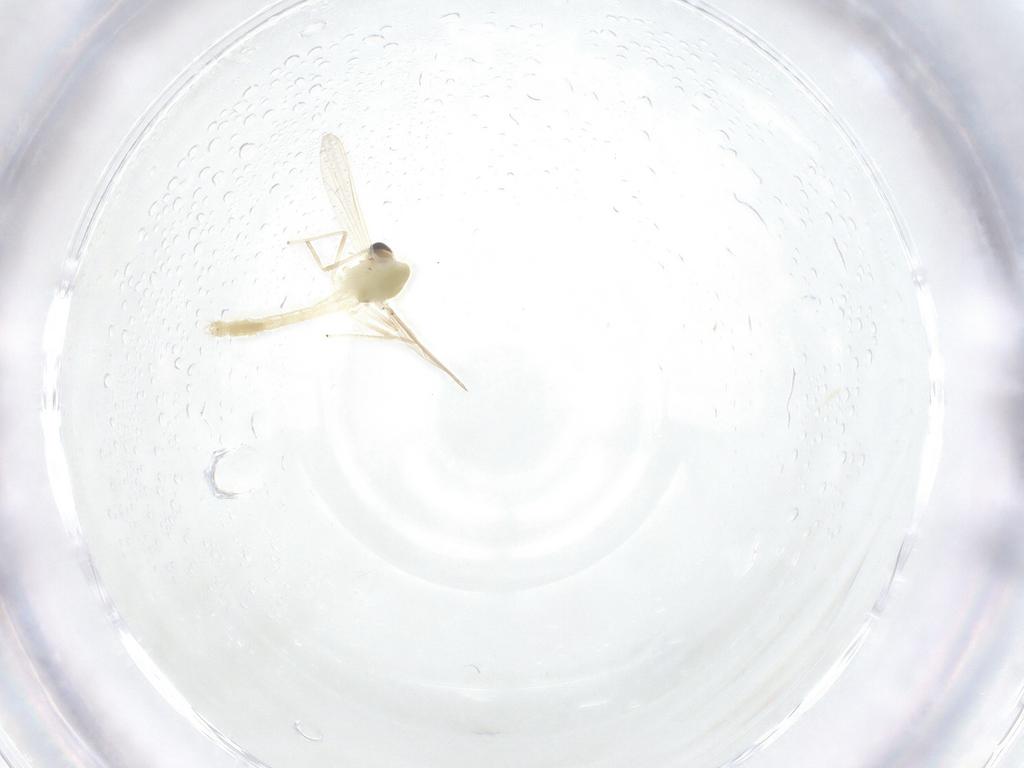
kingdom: Animalia
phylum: Arthropoda
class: Insecta
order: Diptera
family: Chironomidae
